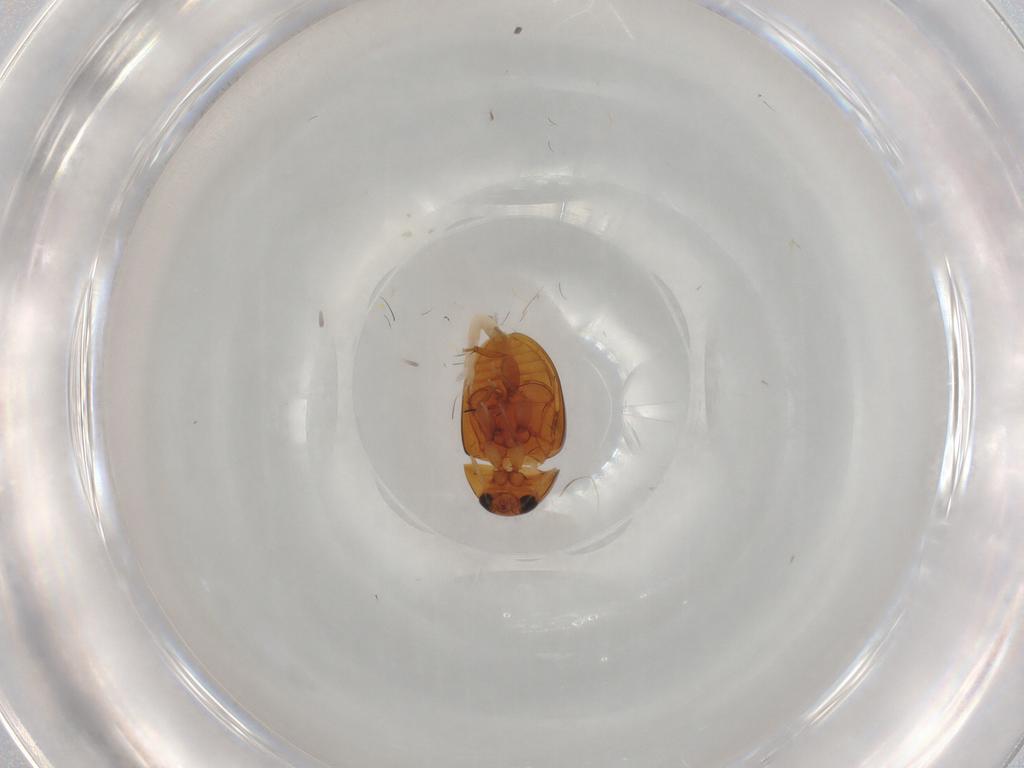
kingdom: Animalia
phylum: Arthropoda
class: Insecta
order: Coleoptera
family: Phalacridae
